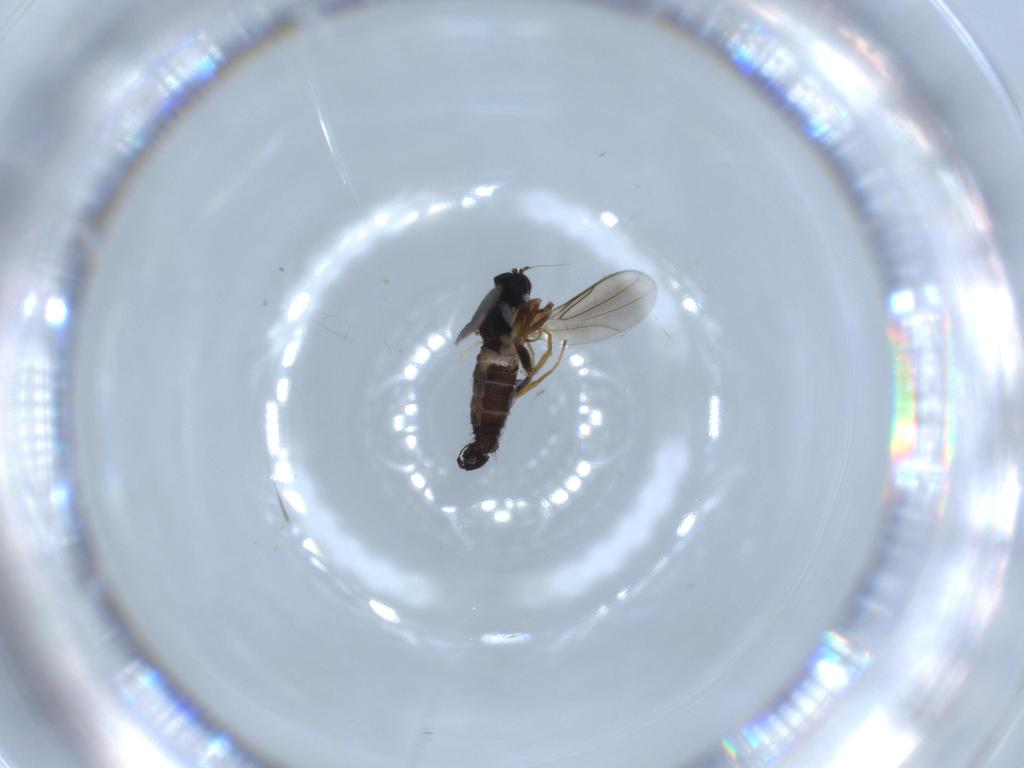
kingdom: Animalia
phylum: Arthropoda
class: Insecta
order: Diptera
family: Hybotidae
